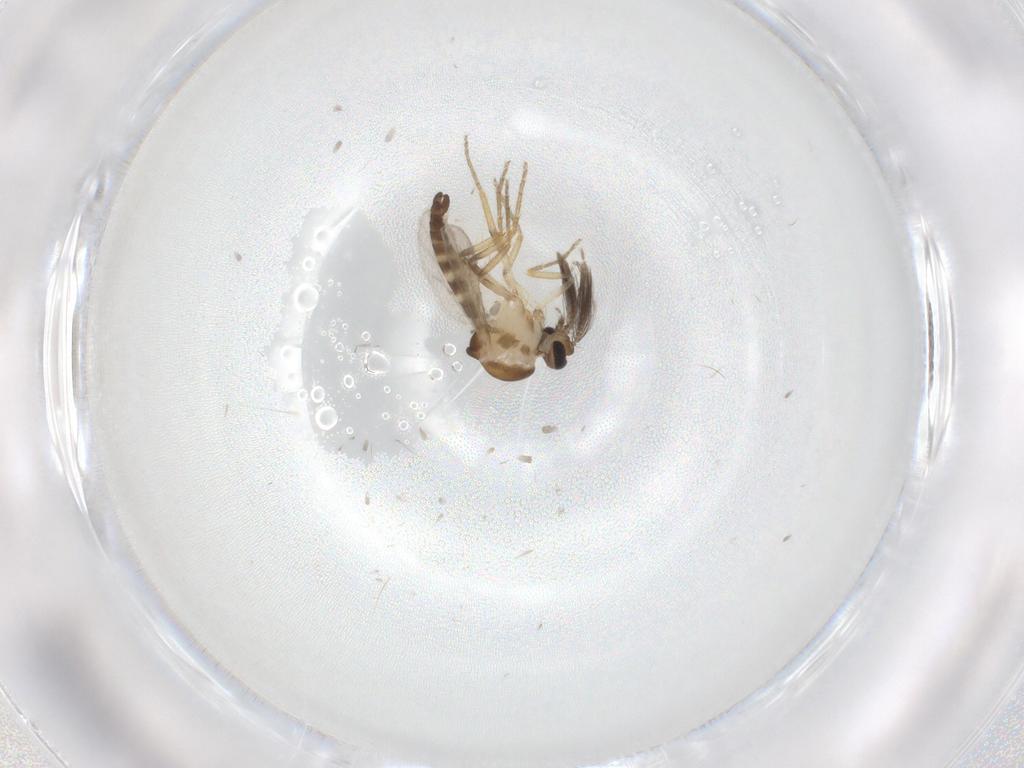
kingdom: Animalia
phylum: Arthropoda
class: Insecta
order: Diptera
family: Ceratopogonidae
